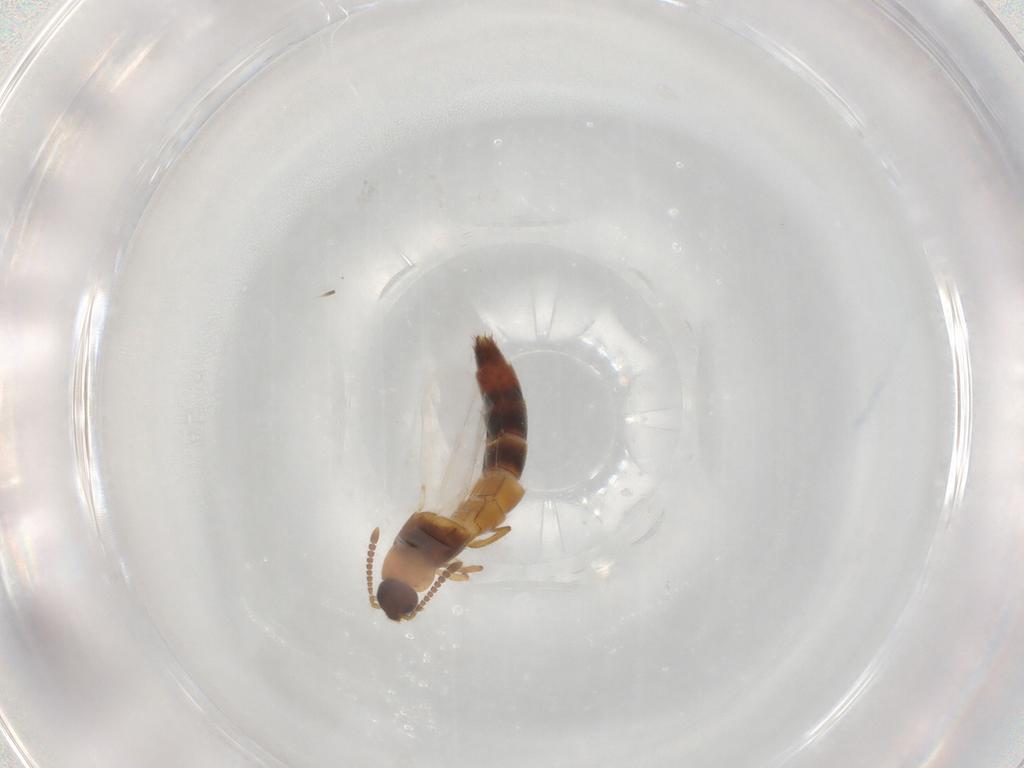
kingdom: Animalia
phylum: Arthropoda
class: Insecta
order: Coleoptera
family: Staphylinidae
